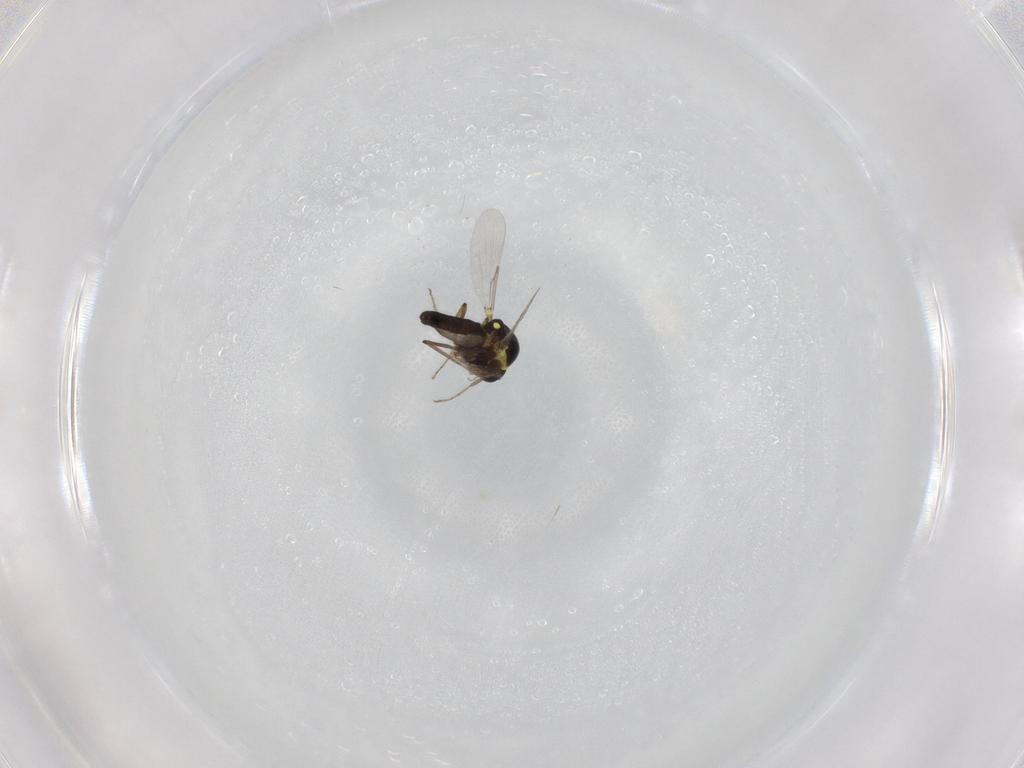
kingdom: Animalia
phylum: Arthropoda
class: Insecta
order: Diptera
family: Ceratopogonidae
